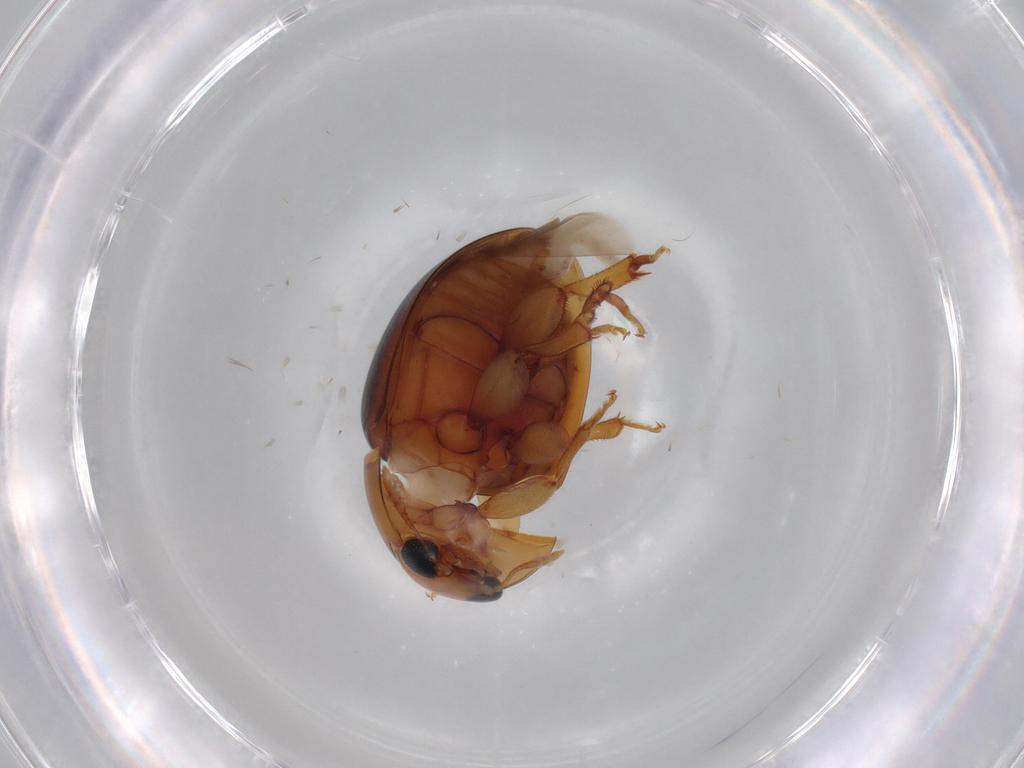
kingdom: Animalia
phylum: Arthropoda
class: Insecta
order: Coleoptera
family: Phalacridae
